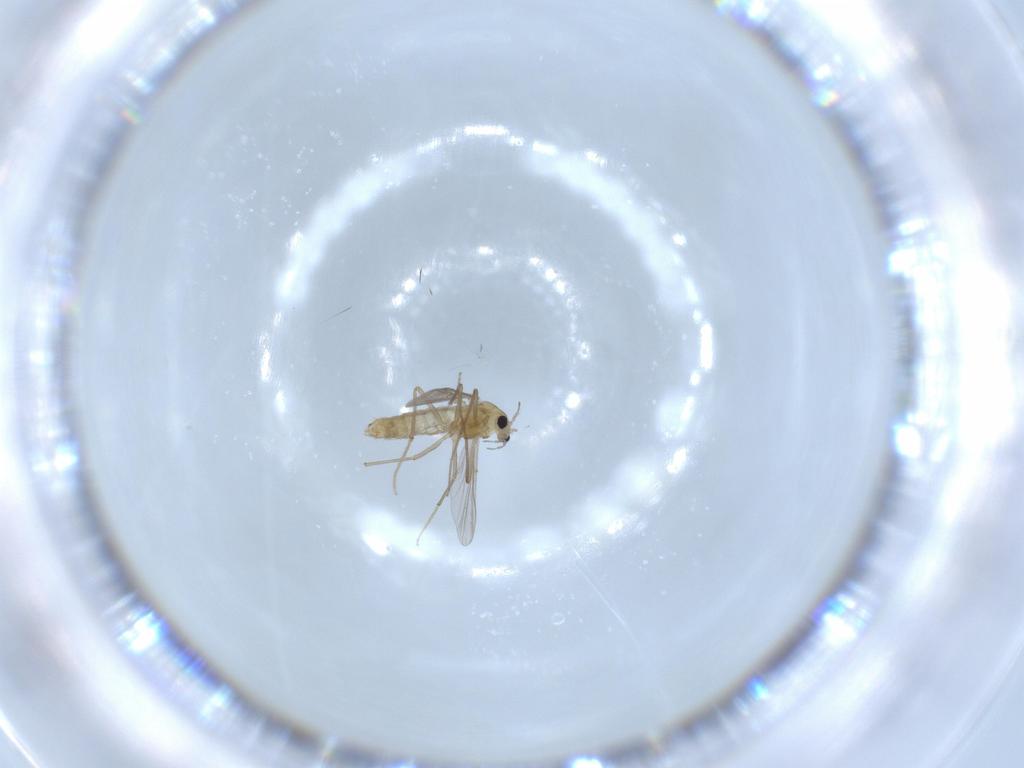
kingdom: Animalia
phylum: Arthropoda
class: Insecta
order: Diptera
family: Chironomidae
